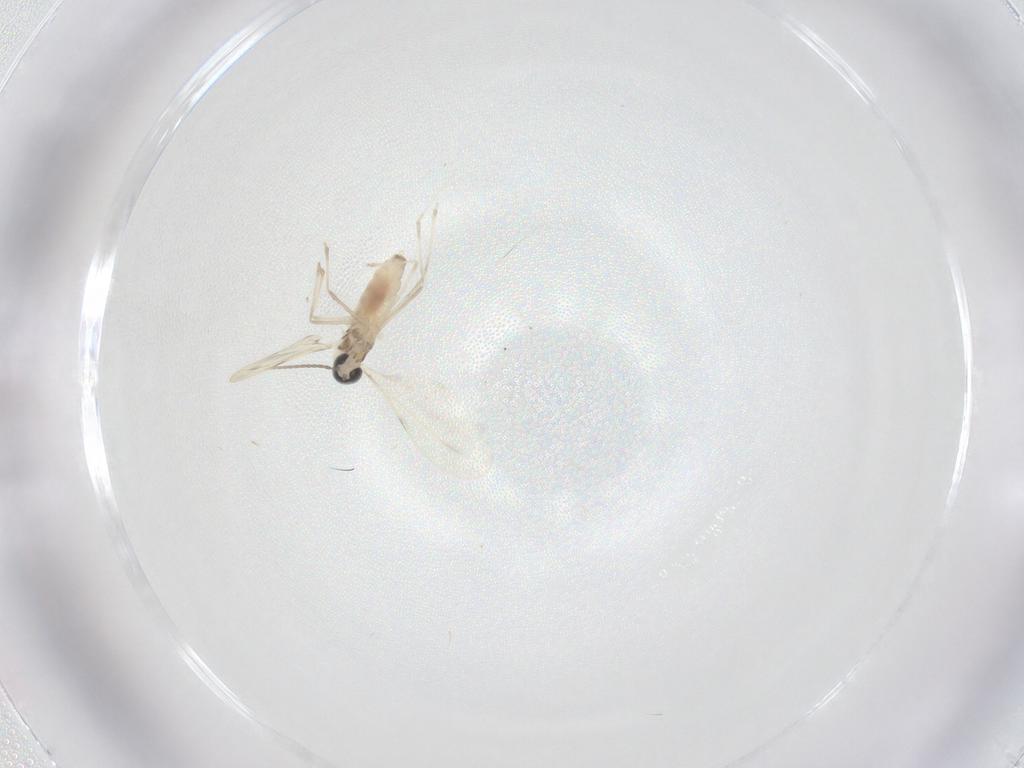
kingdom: Animalia
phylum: Arthropoda
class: Insecta
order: Diptera
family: Cecidomyiidae
